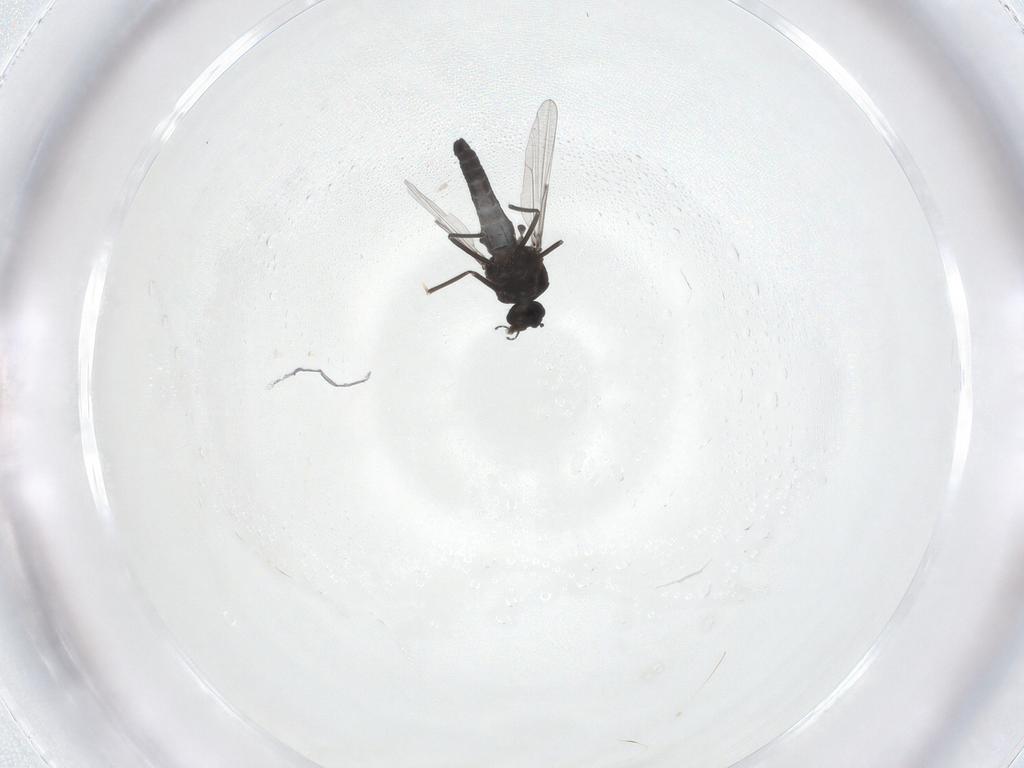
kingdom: Animalia
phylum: Arthropoda
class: Insecta
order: Diptera
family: Ceratopogonidae
